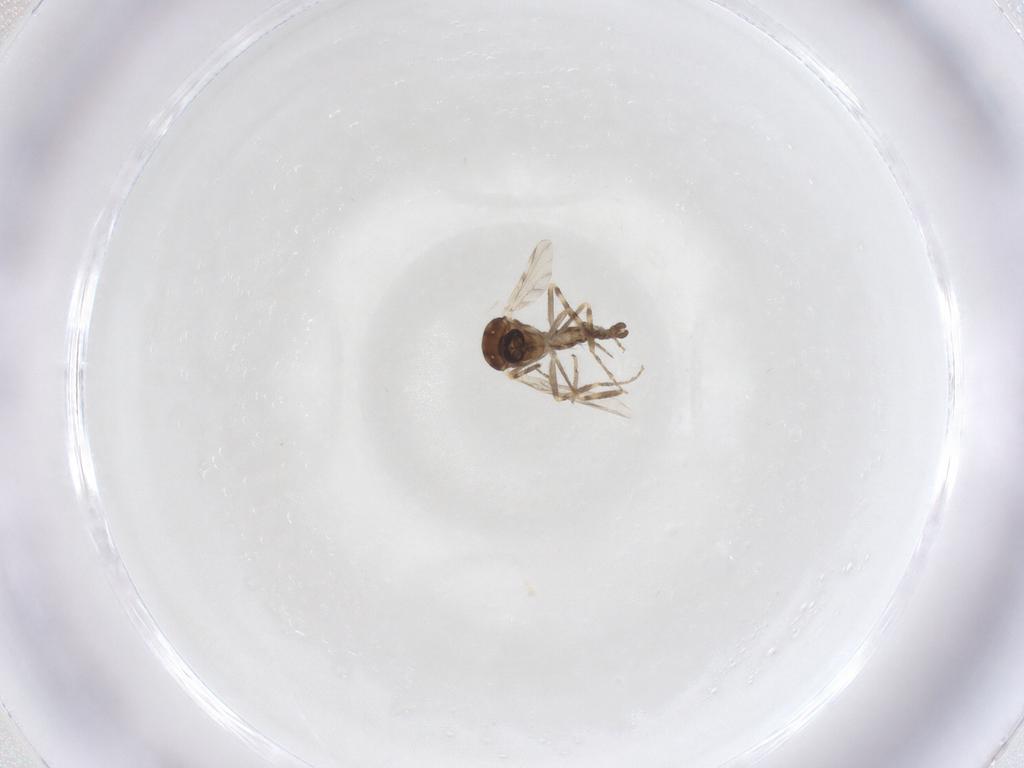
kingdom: Animalia
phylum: Arthropoda
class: Insecta
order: Diptera
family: Ceratopogonidae
